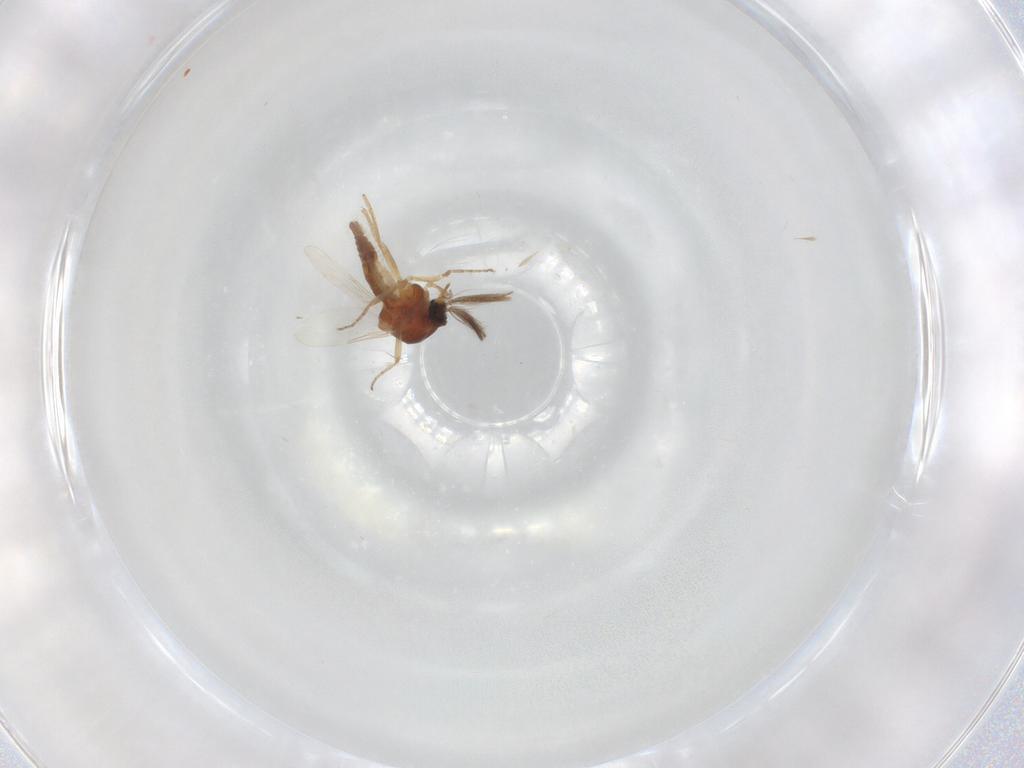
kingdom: Animalia
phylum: Arthropoda
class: Insecta
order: Diptera
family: Ceratopogonidae
